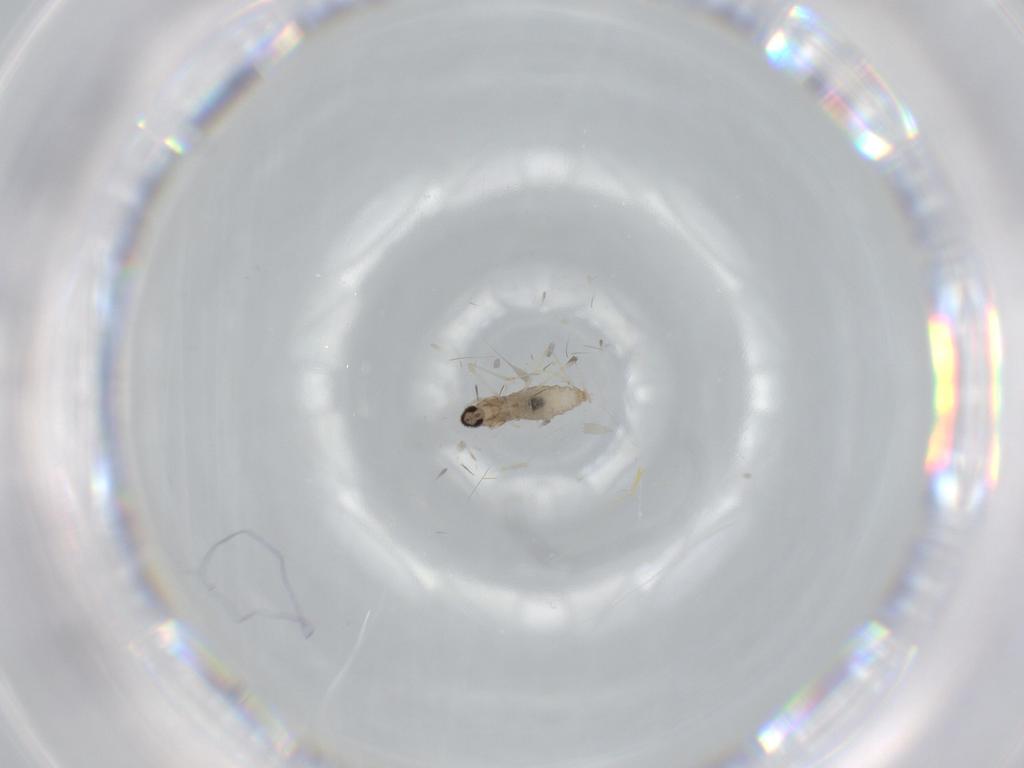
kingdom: Animalia
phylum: Arthropoda
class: Insecta
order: Diptera
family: Cecidomyiidae
